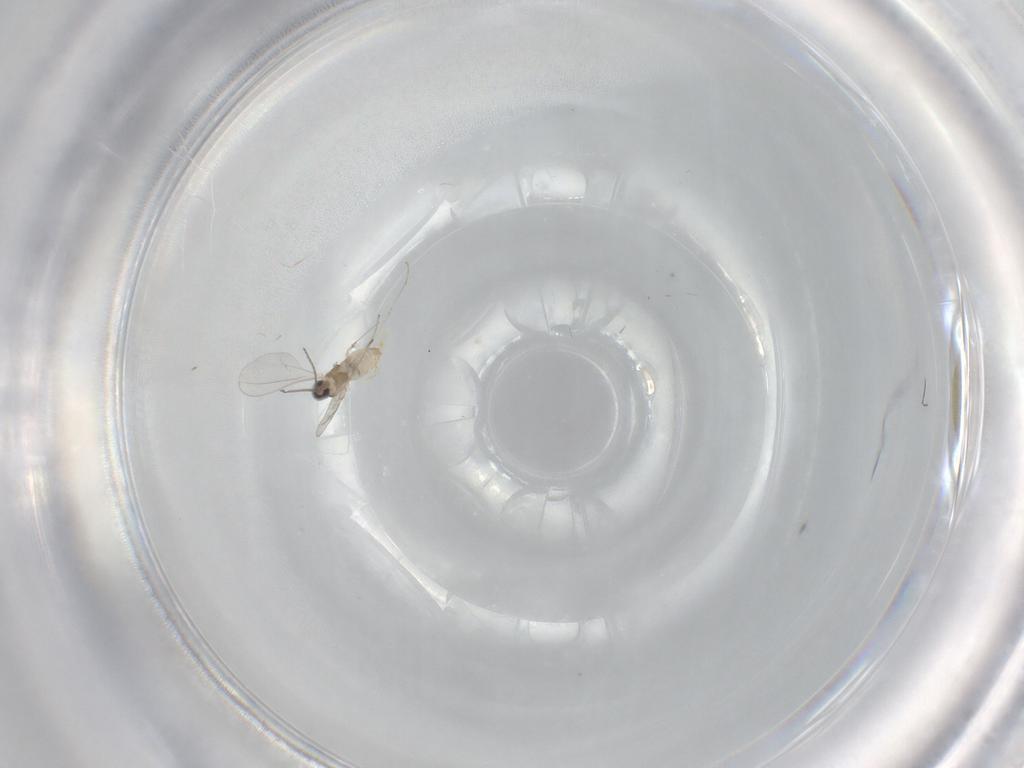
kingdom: Animalia
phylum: Arthropoda
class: Insecta
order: Diptera
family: Cecidomyiidae
